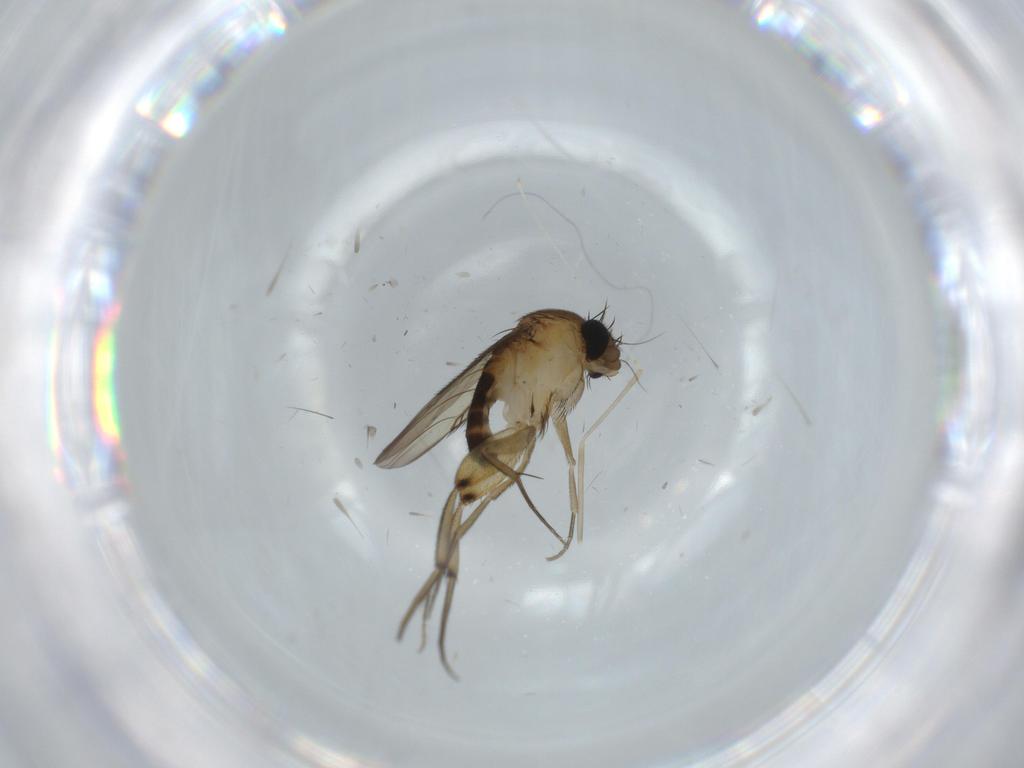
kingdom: Animalia
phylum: Arthropoda
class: Insecta
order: Diptera
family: Phoridae
